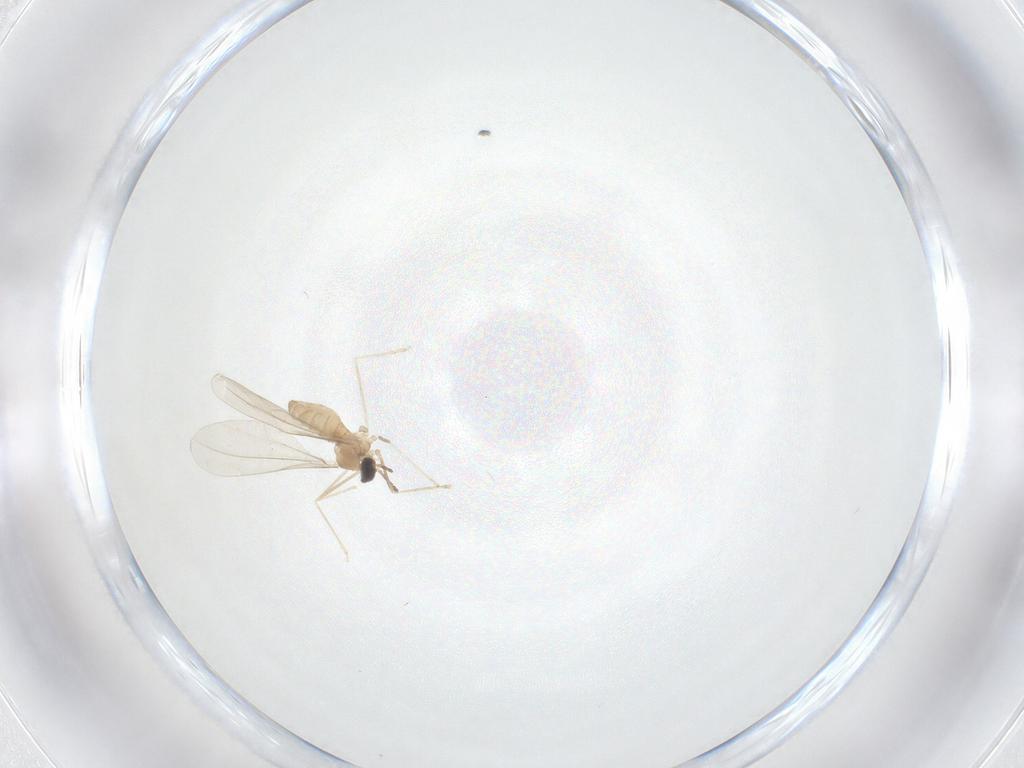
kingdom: Animalia
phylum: Arthropoda
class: Insecta
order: Diptera
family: Cecidomyiidae
